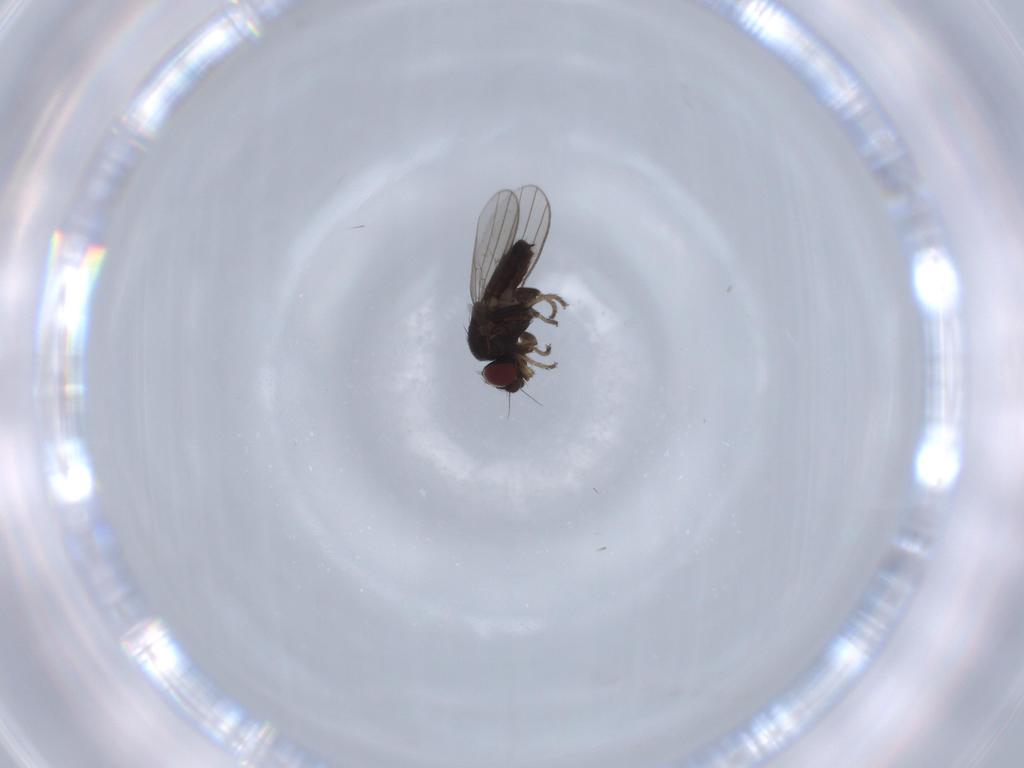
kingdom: Animalia
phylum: Arthropoda
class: Insecta
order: Diptera
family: Milichiidae
